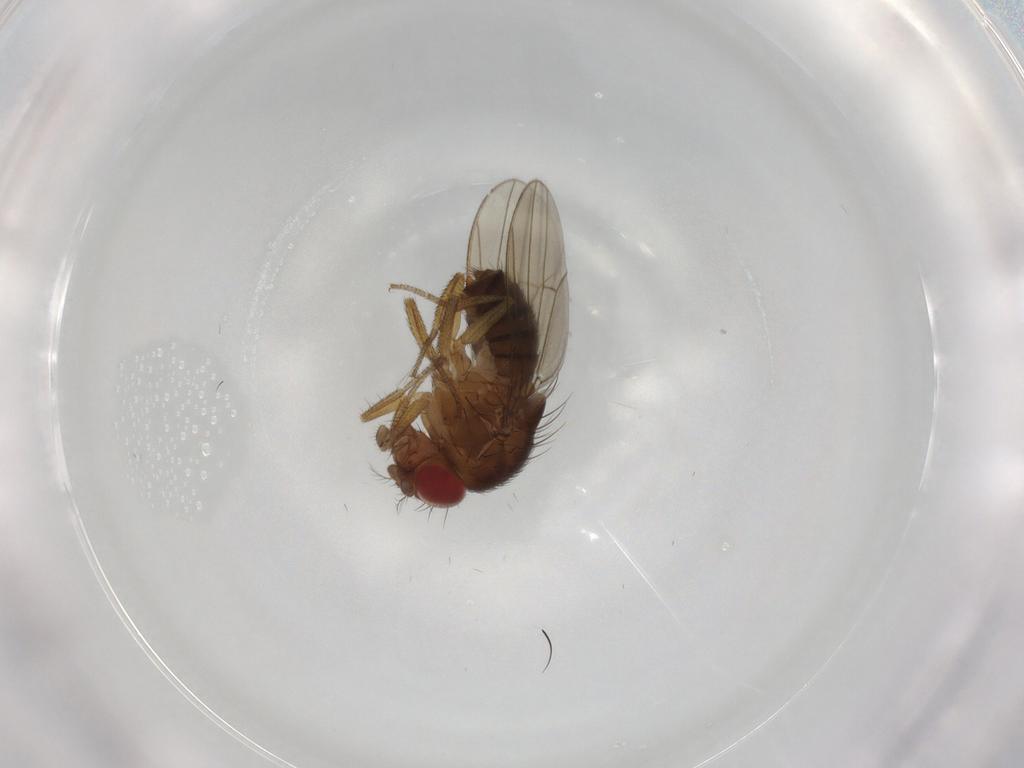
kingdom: Animalia
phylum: Arthropoda
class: Insecta
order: Diptera
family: Drosophilidae
